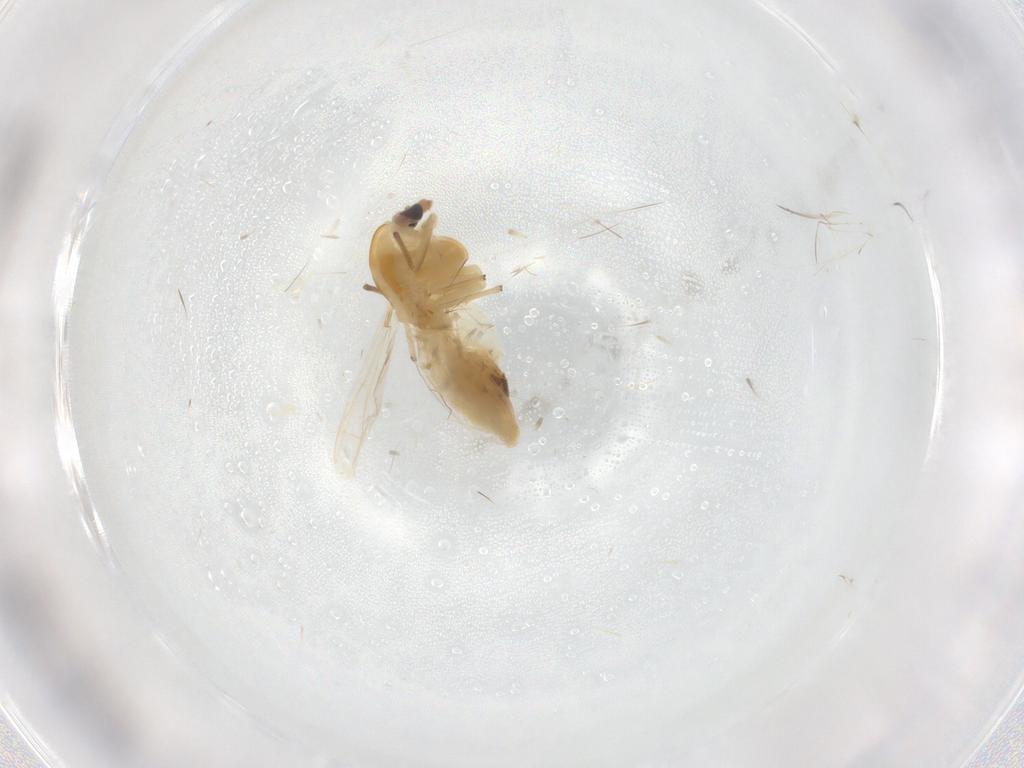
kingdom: Animalia
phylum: Arthropoda
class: Insecta
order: Diptera
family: Chironomidae
